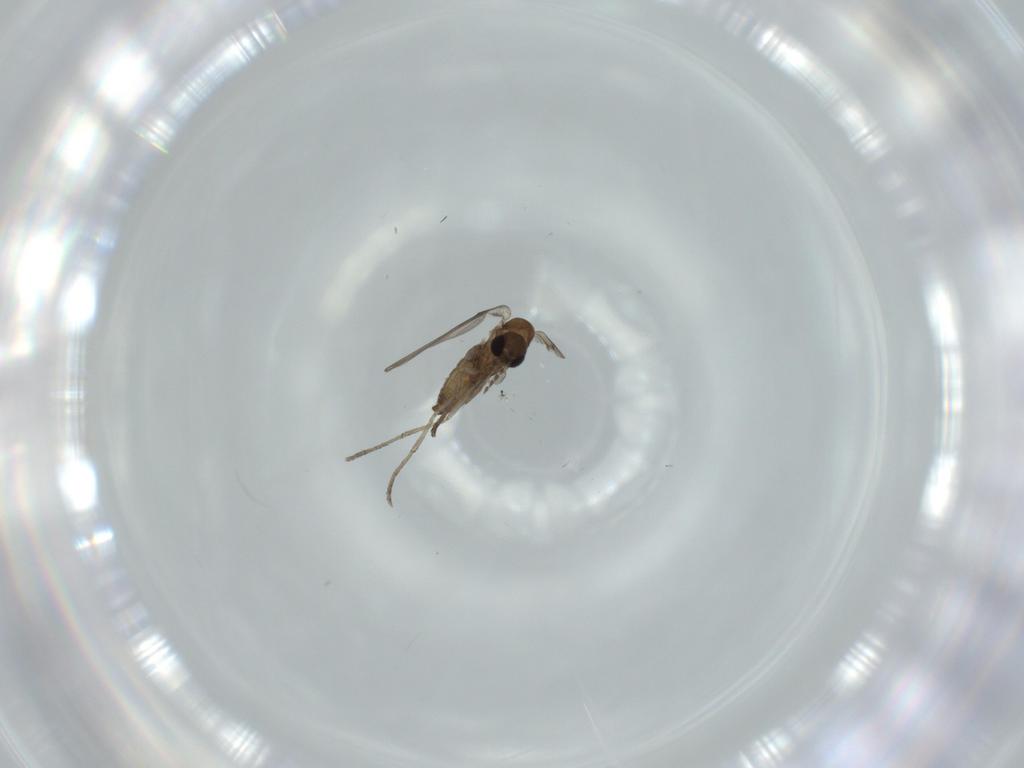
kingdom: Animalia
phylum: Arthropoda
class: Insecta
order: Diptera
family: Psychodidae
